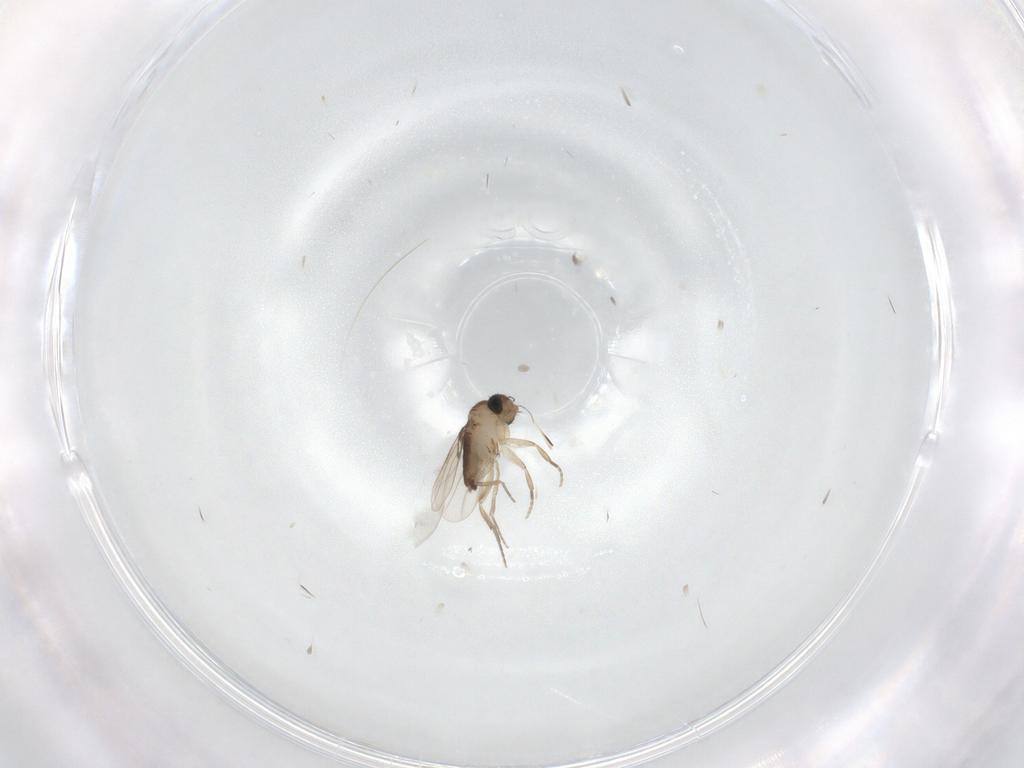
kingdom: Animalia
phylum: Arthropoda
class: Insecta
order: Diptera
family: Phoridae
